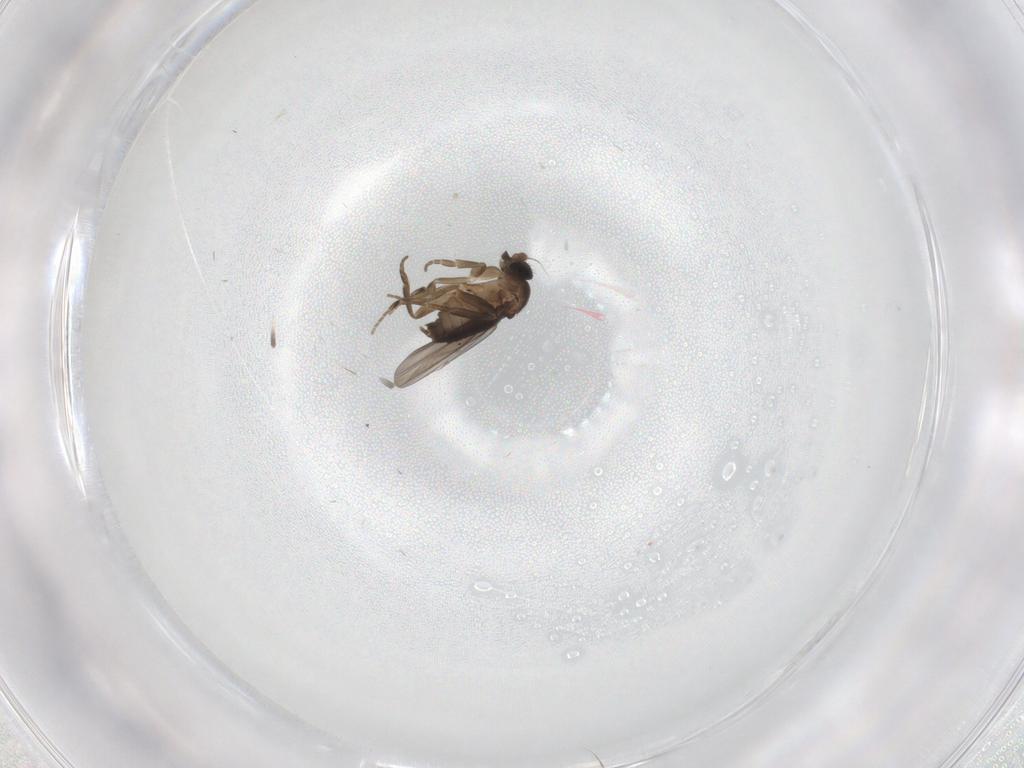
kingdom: Animalia
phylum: Arthropoda
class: Insecta
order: Diptera
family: Phoridae
